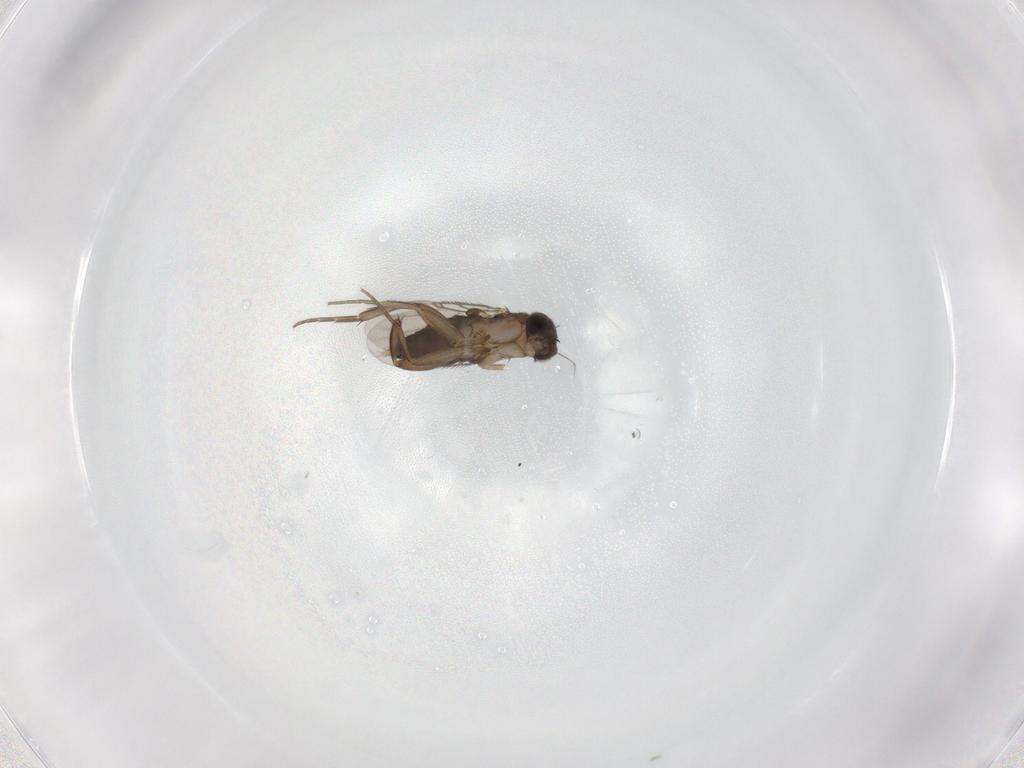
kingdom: Animalia
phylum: Arthropoda
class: Insecta
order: Diptera
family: Phoridae
